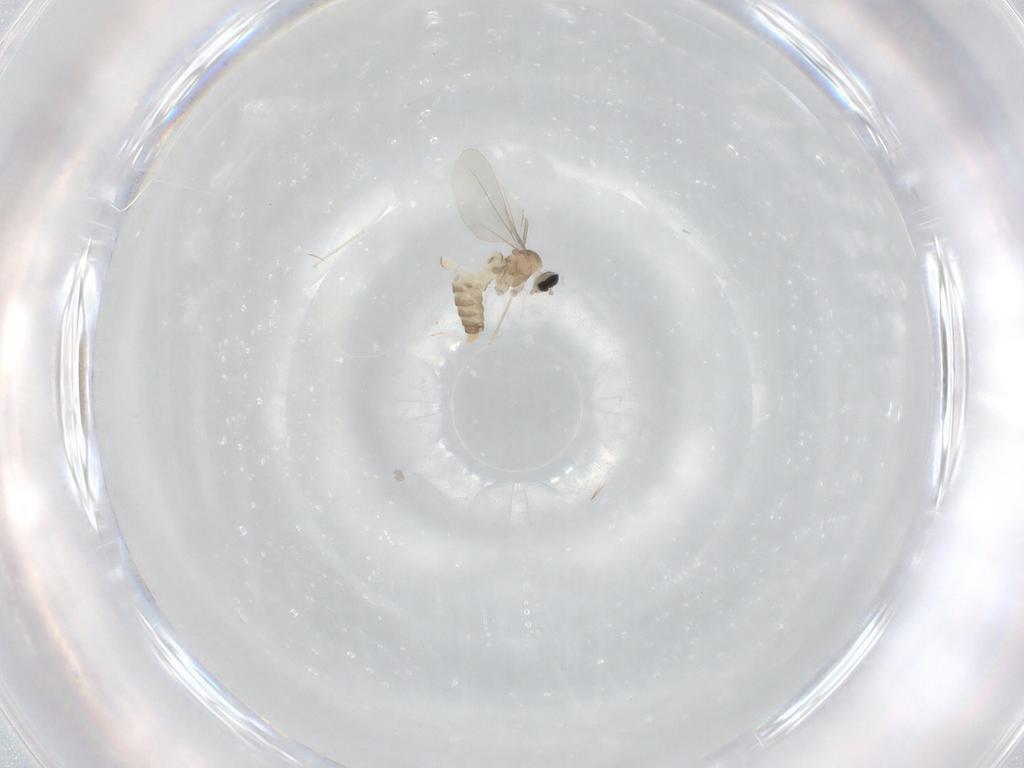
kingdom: Animalia
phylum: Arthropoda
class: Insecta
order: Diptera
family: Cecidomyiidae
